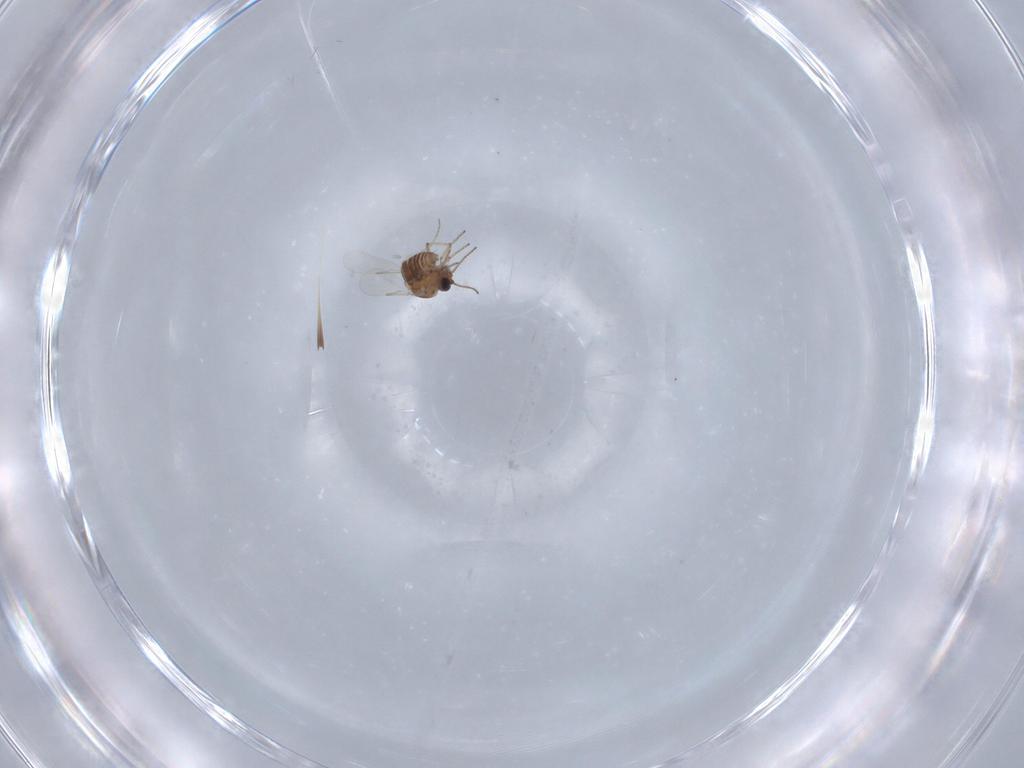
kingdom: Animalia
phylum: Arthropoda
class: Insecta
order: Diptera
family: Ceratopogonidae
